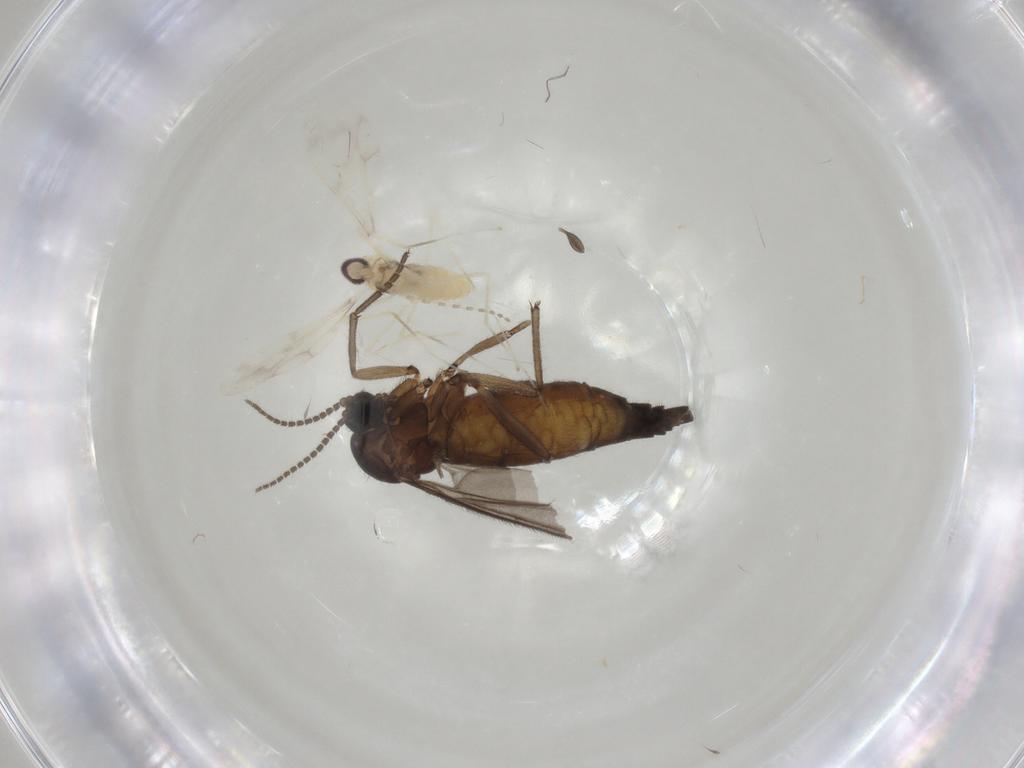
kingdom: Animalia
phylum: Arthropoda
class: Insecta
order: Diptera
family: Sciaridae
